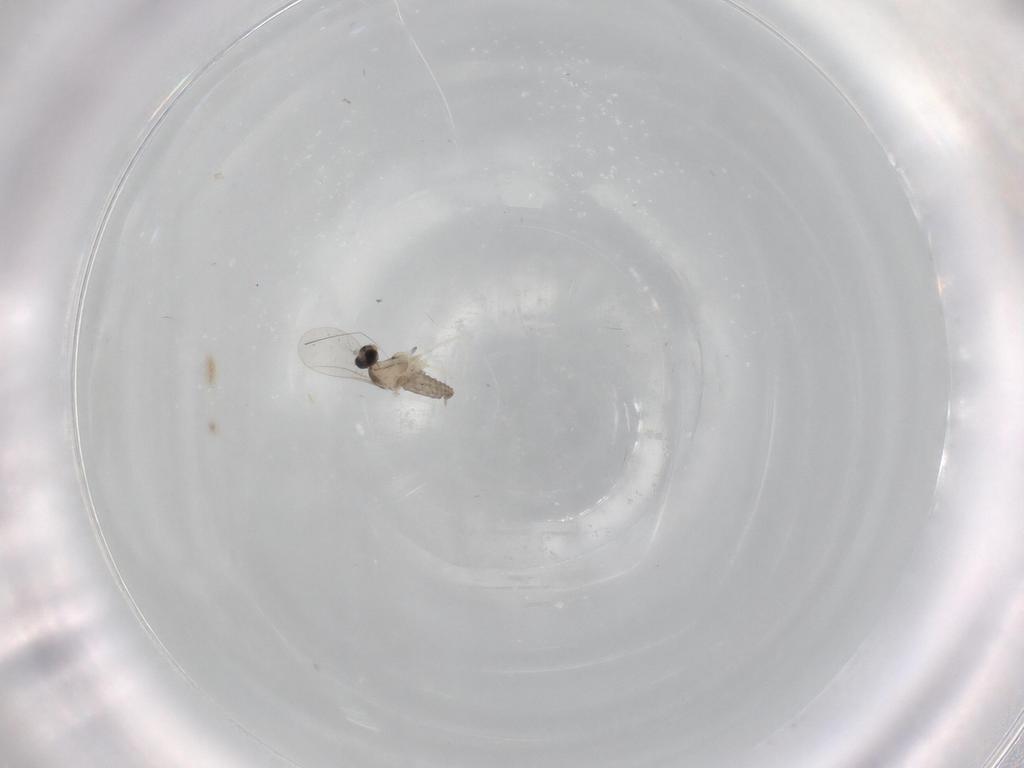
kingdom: Animalia
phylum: Arthropoda
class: Insecta
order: Diptera
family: Cecidomyiidae
